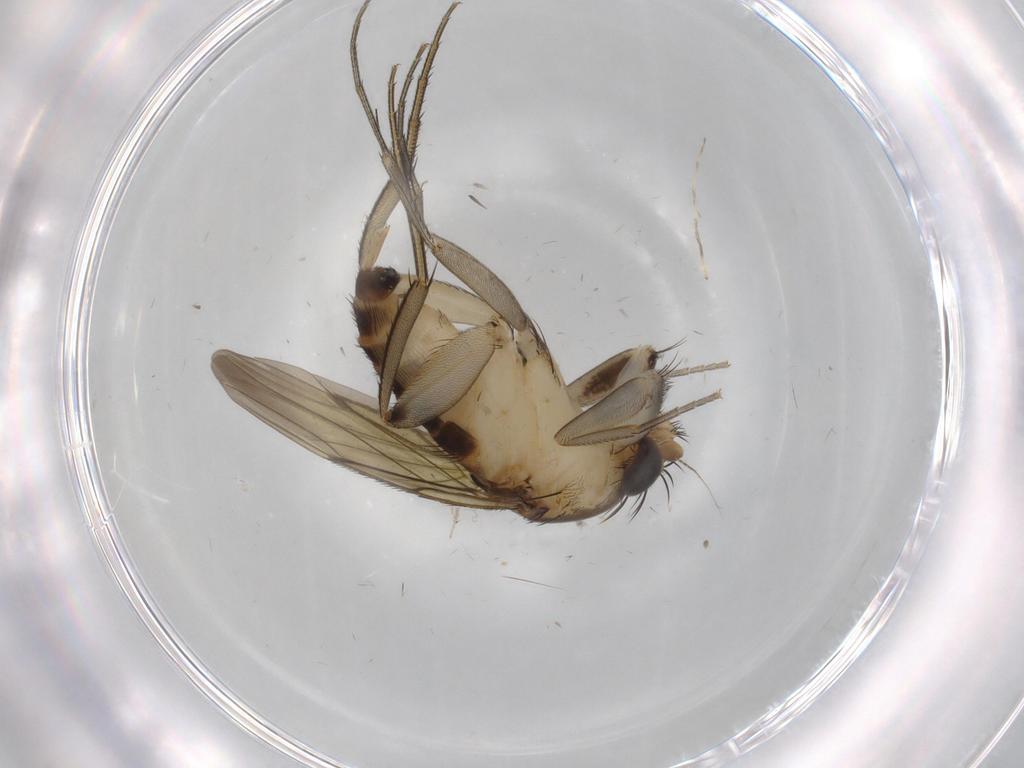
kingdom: Animalia
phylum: Arthropoda
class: Insecta
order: Diptera
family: Phoridae
